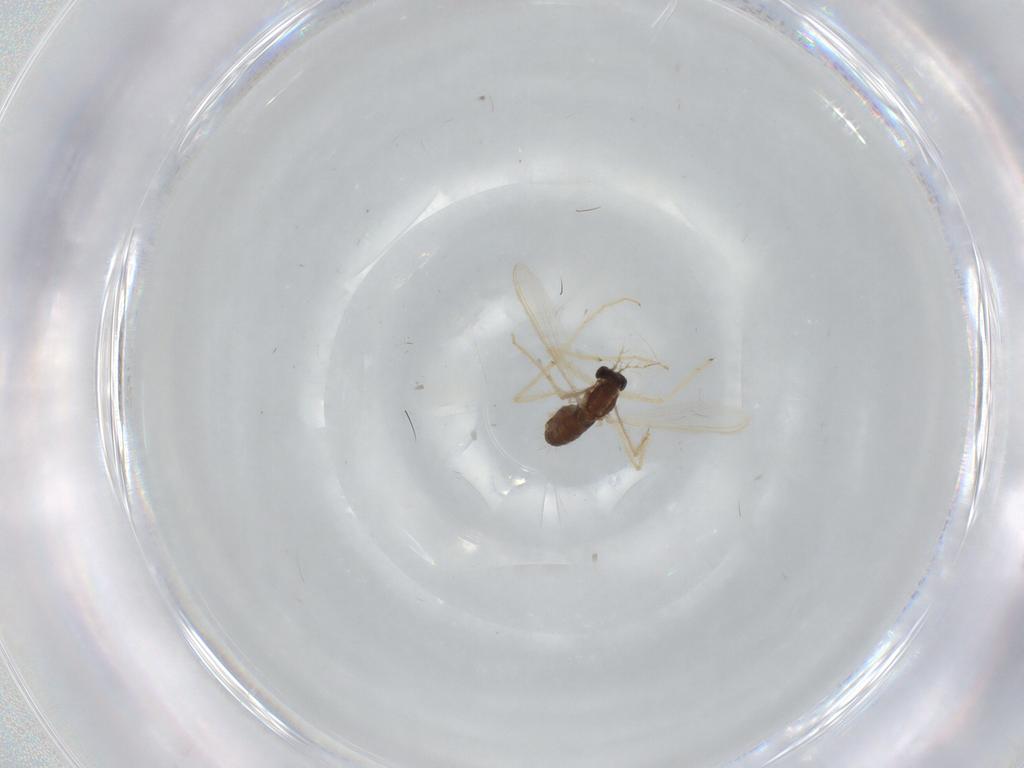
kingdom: Animalia
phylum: Arthropoda
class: Insecta
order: Diptera
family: Chironomidae
